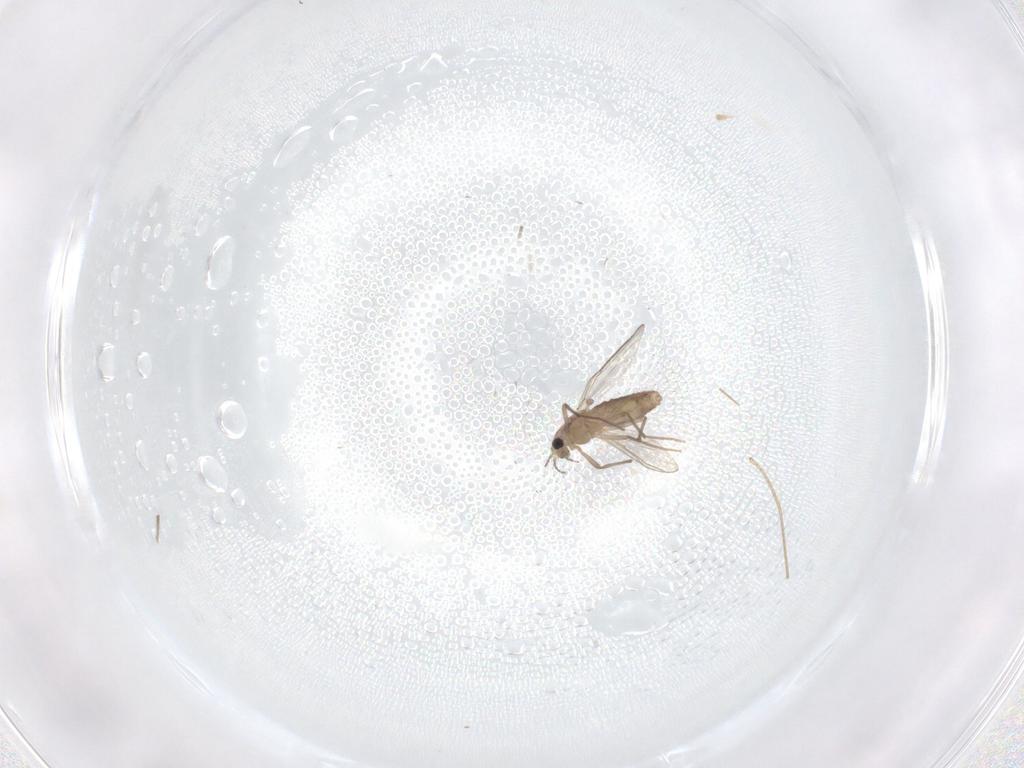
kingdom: Animalia
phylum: Arthropoda
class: Insecta
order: Diptera
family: Chironomidae
